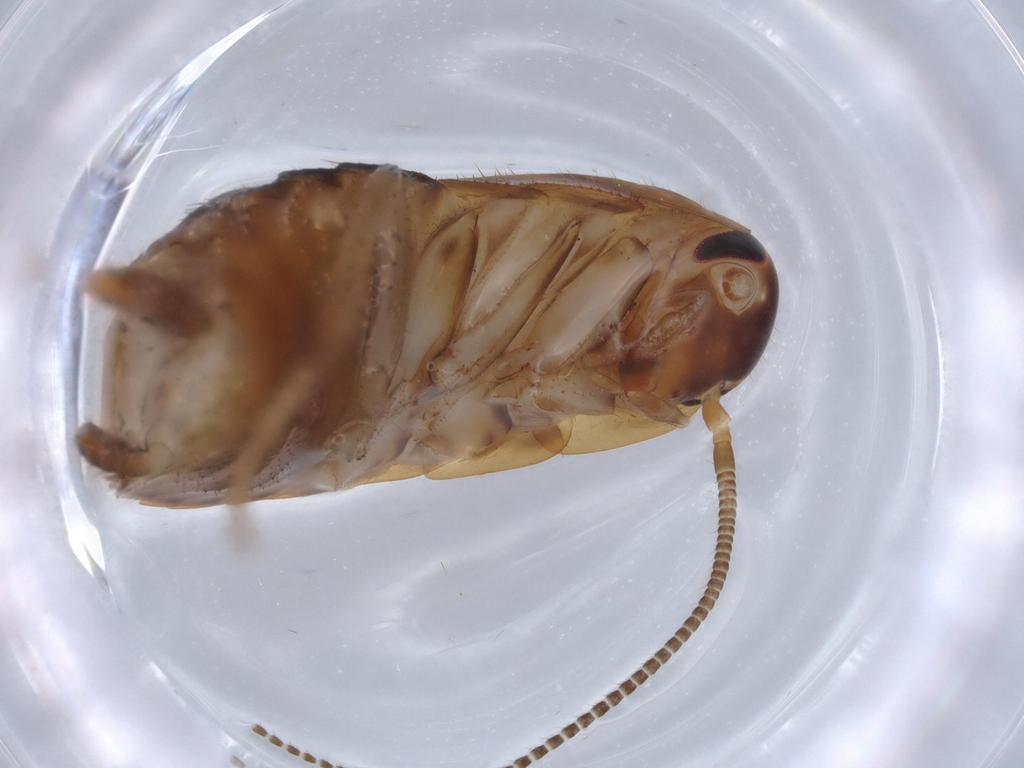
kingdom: Animalia
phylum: Arthropoda
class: Insecta
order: Blattodea
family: Ectobiidae
